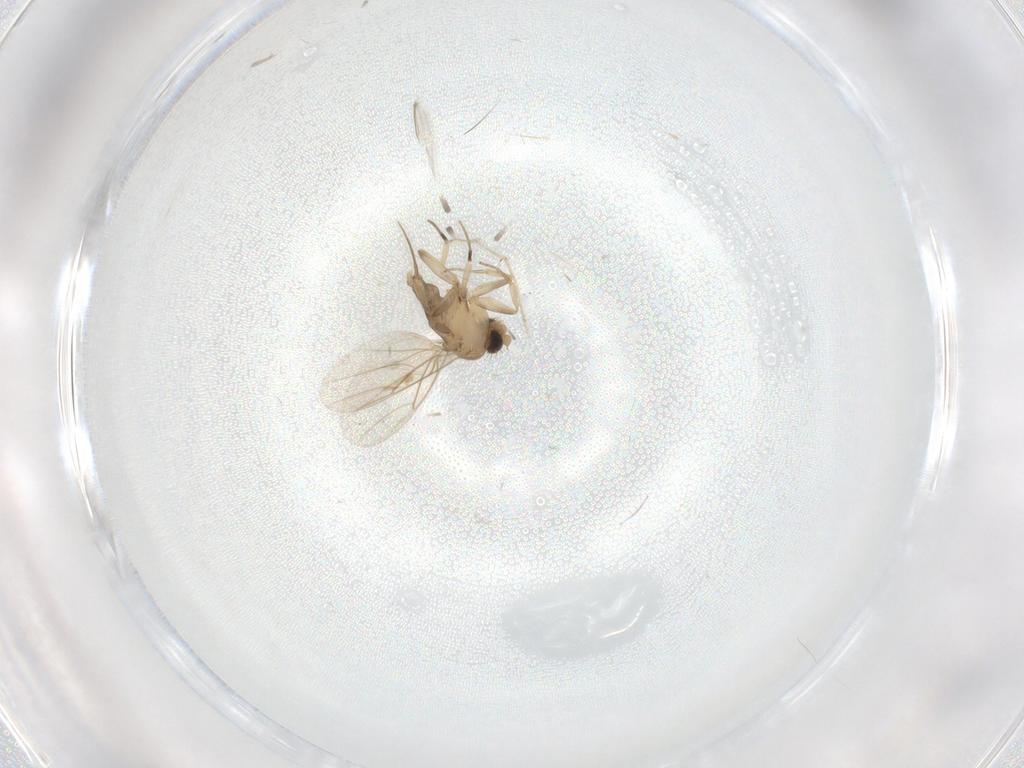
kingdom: Animalia
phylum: Arthropoda
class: Insecta
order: Diptera
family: Phoridae
